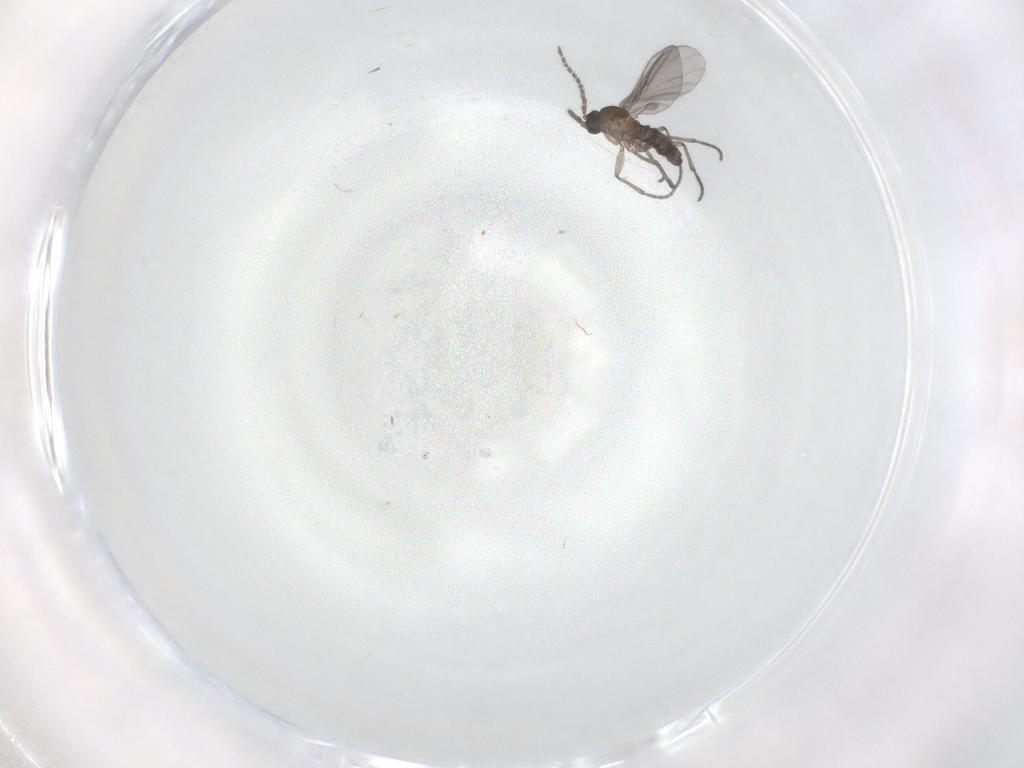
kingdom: Animalia
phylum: Arthropoda
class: Insecta
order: Diptera
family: Sciaridae
